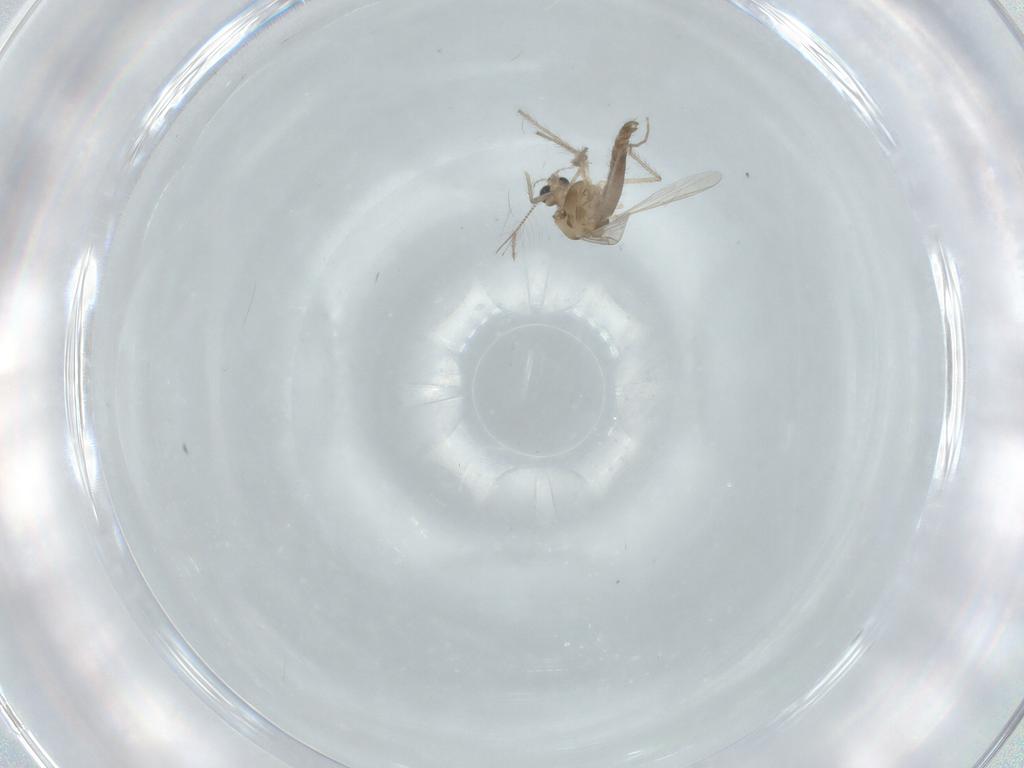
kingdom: Animalia
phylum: Arthropoda
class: Insecta
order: Diptera
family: Chironomidae
